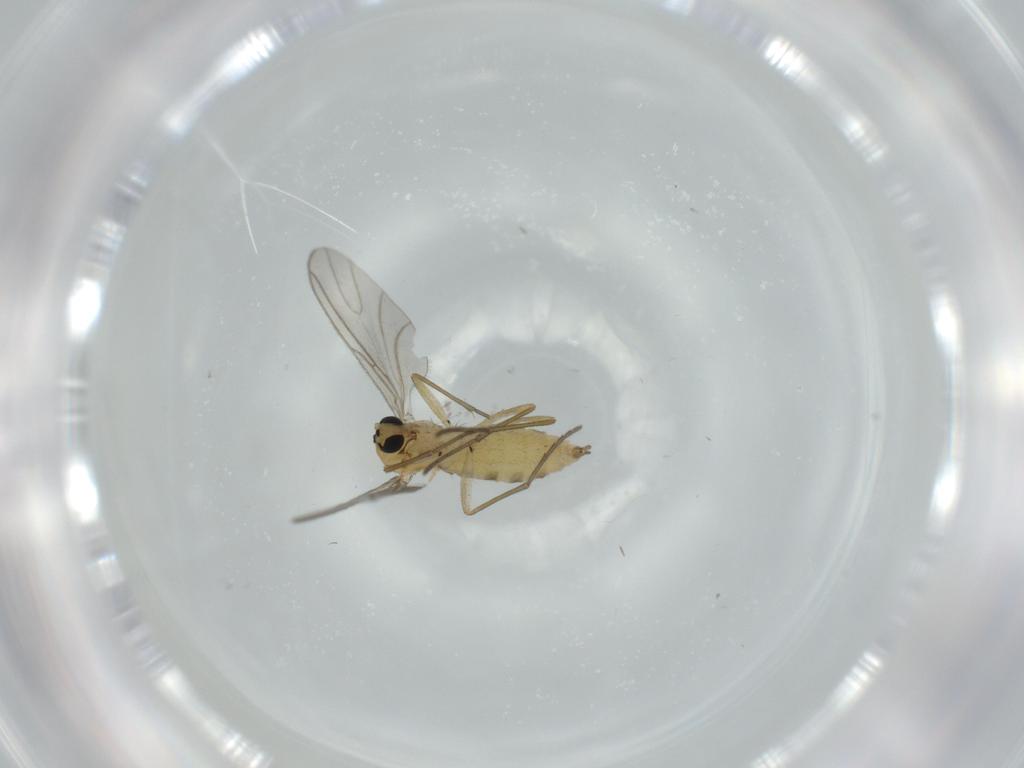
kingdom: Animalia
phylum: Arthropoda
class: Insecta
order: Diptera
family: Sciaridae
